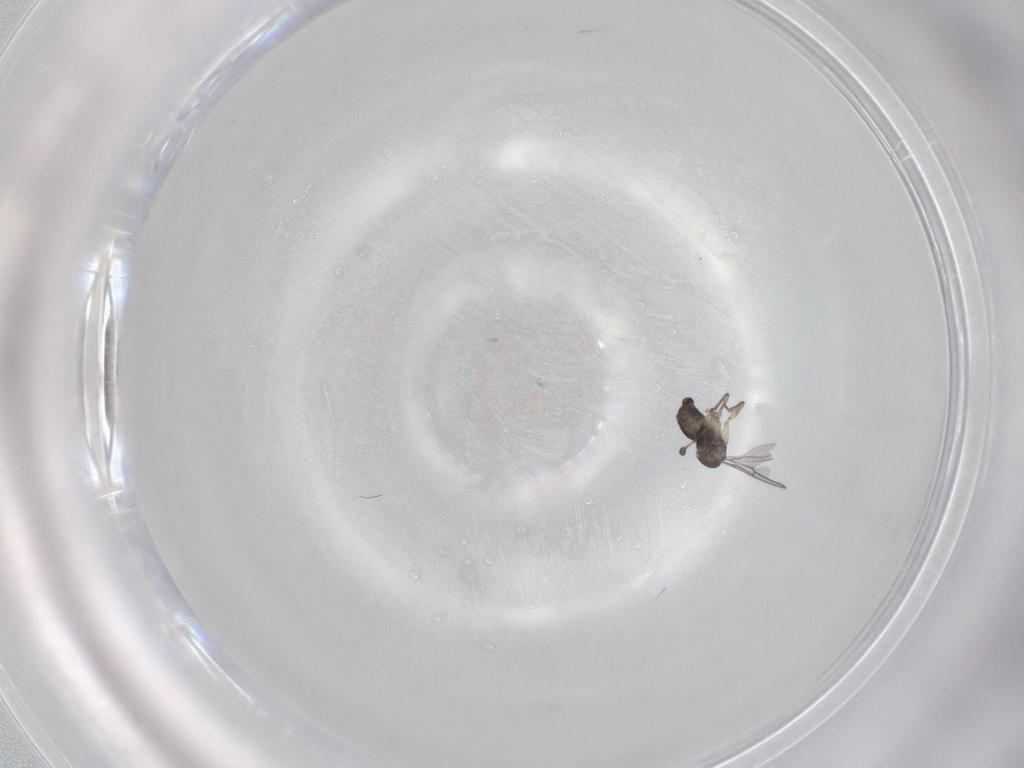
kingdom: Animalia
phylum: Arthropoda
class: Insecta
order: Diptera
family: Sciaridae
